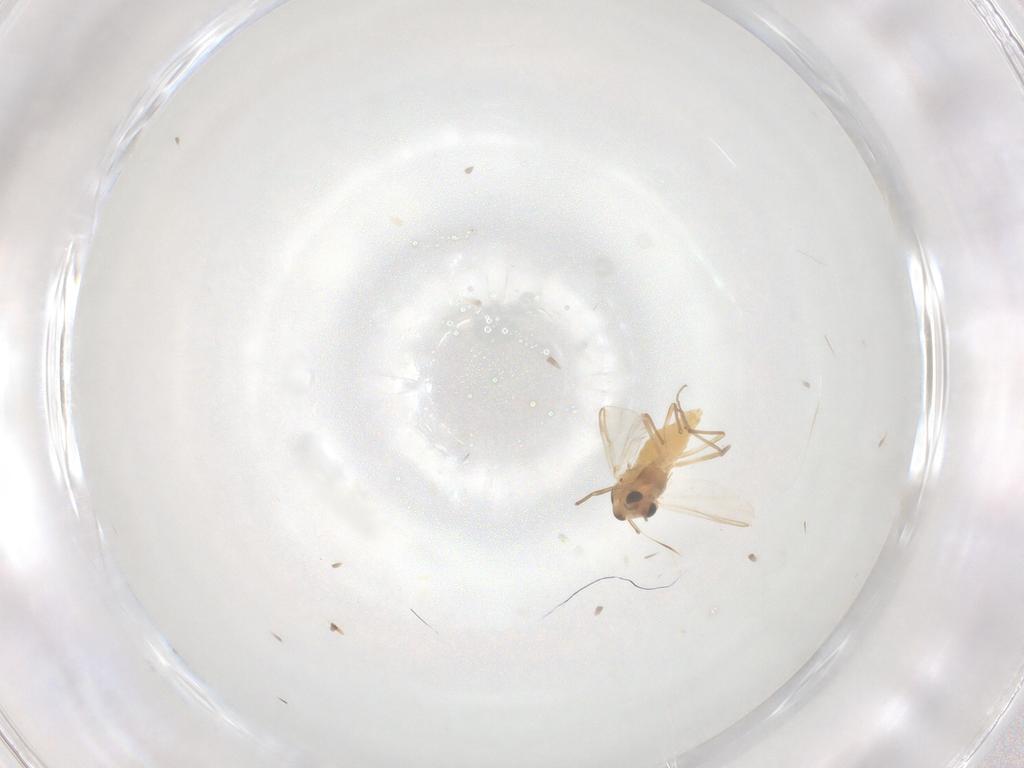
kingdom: Animalia
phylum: Arthropoda
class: Insecta
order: Diptera
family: Chironomidae
